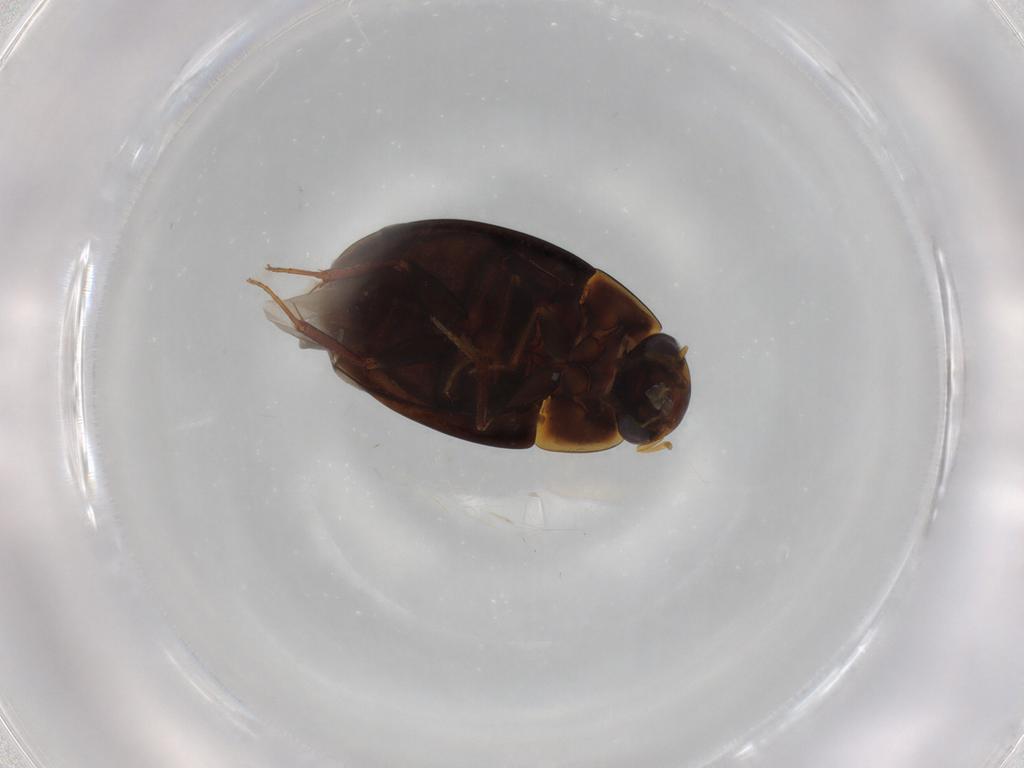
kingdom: Animalia
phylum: Arthropoda
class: Insecta
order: Coleoptera
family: Hydrophilidae
